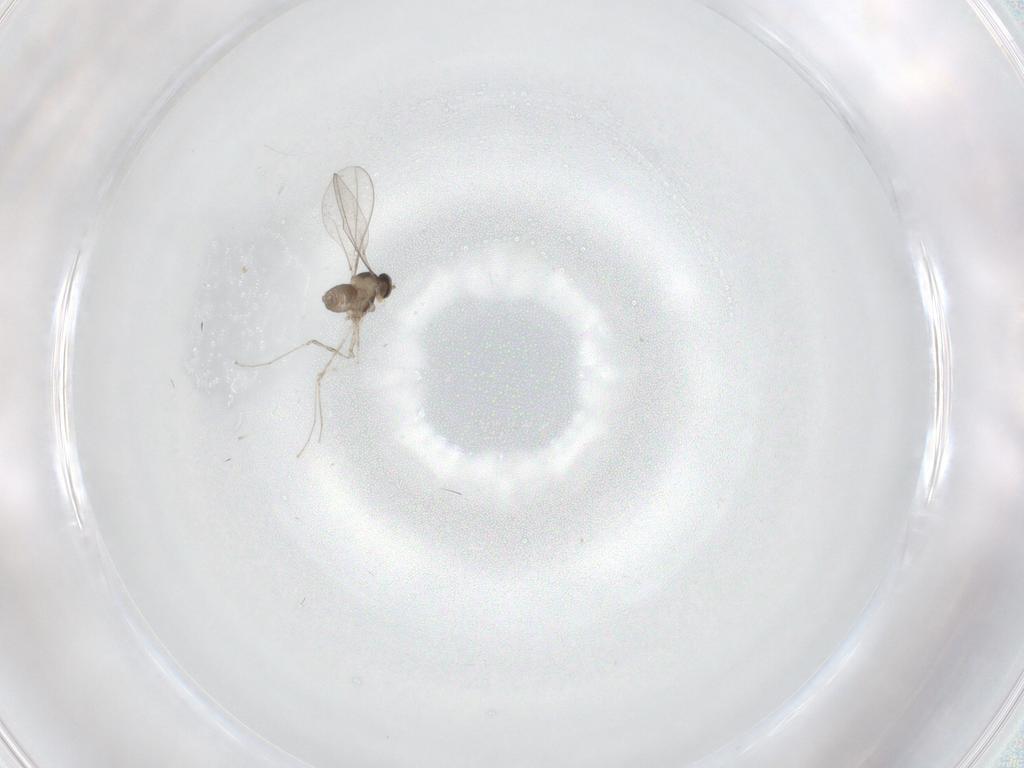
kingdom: Animalia
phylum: Arthropoda
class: Insecta
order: Diptera
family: Cecidomyiidae
